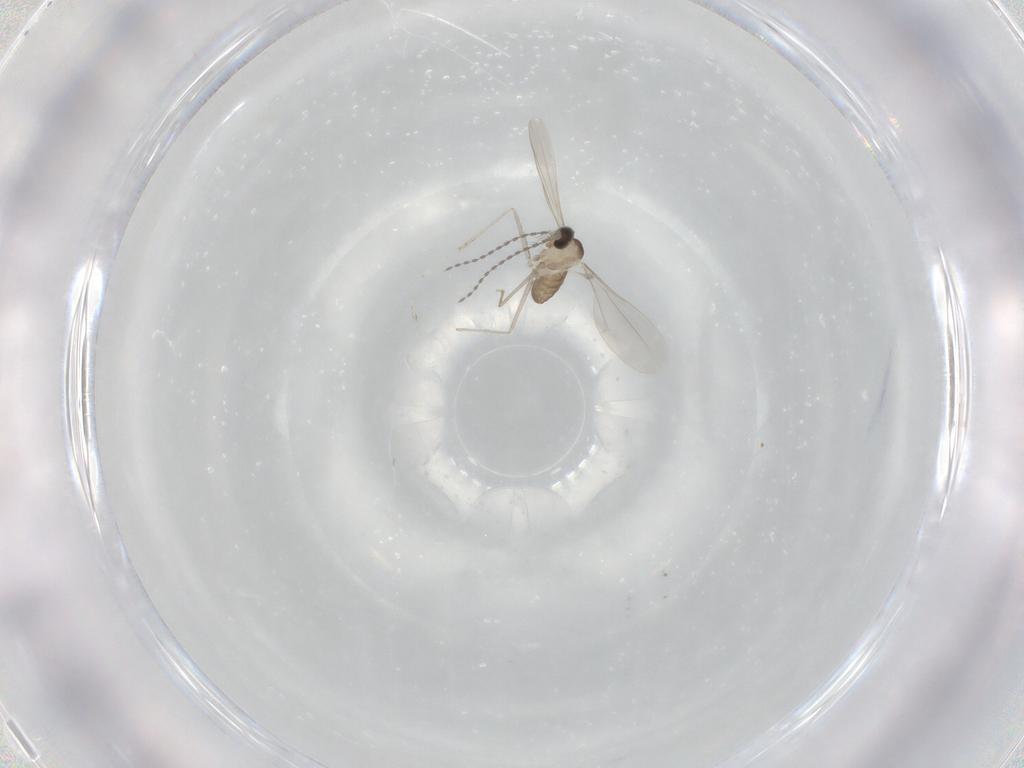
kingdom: Animalia
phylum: Arthropoda
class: Insecta
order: Diptera
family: Cecidomyiidae
